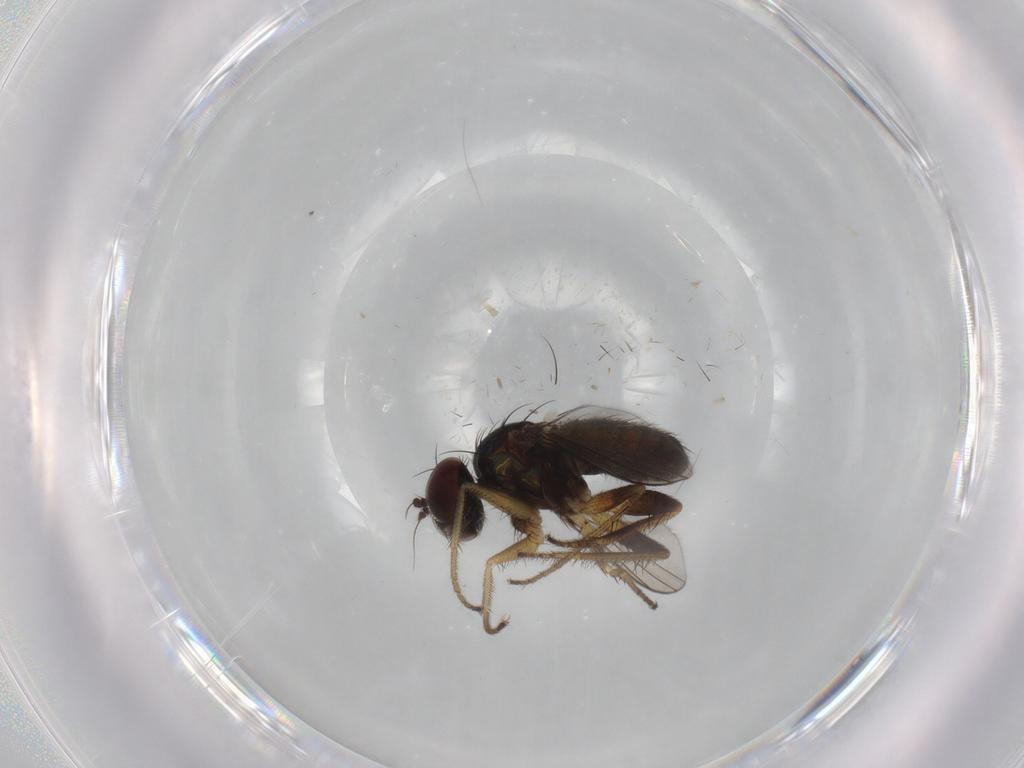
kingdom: Animalia
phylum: Arthropoda
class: Insecta
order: Diptera
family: Dolichopodidae
